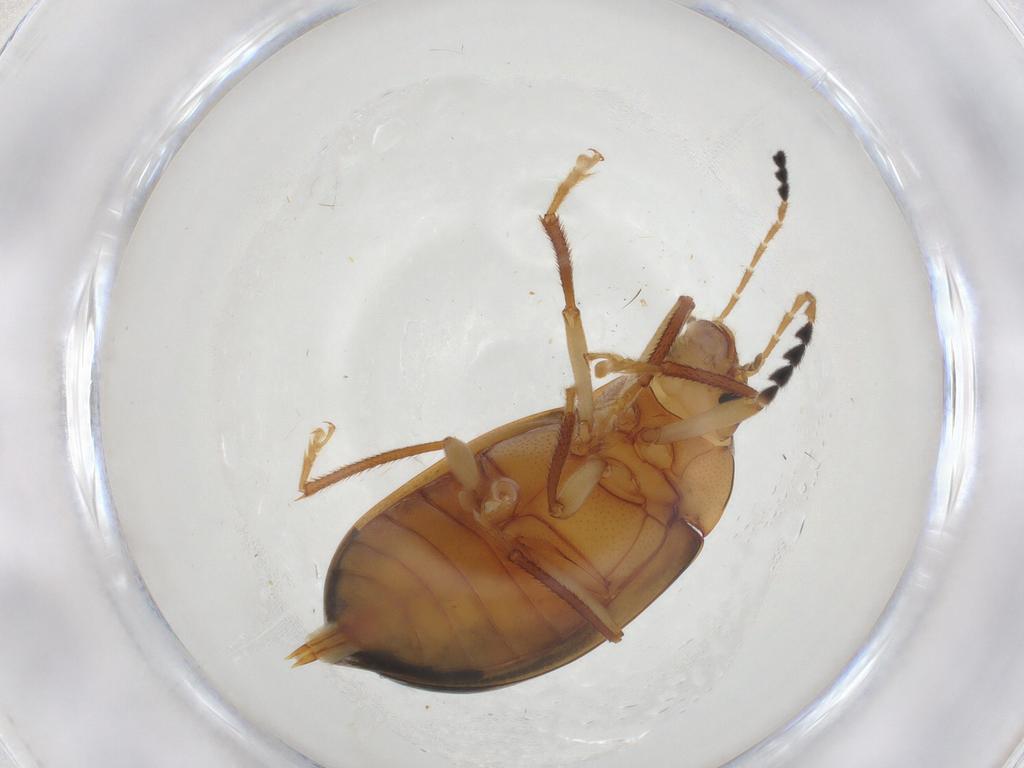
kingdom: Animalia
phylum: Arthropoda
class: Insecta
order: Coleoptera
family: Ptilodactylidae
